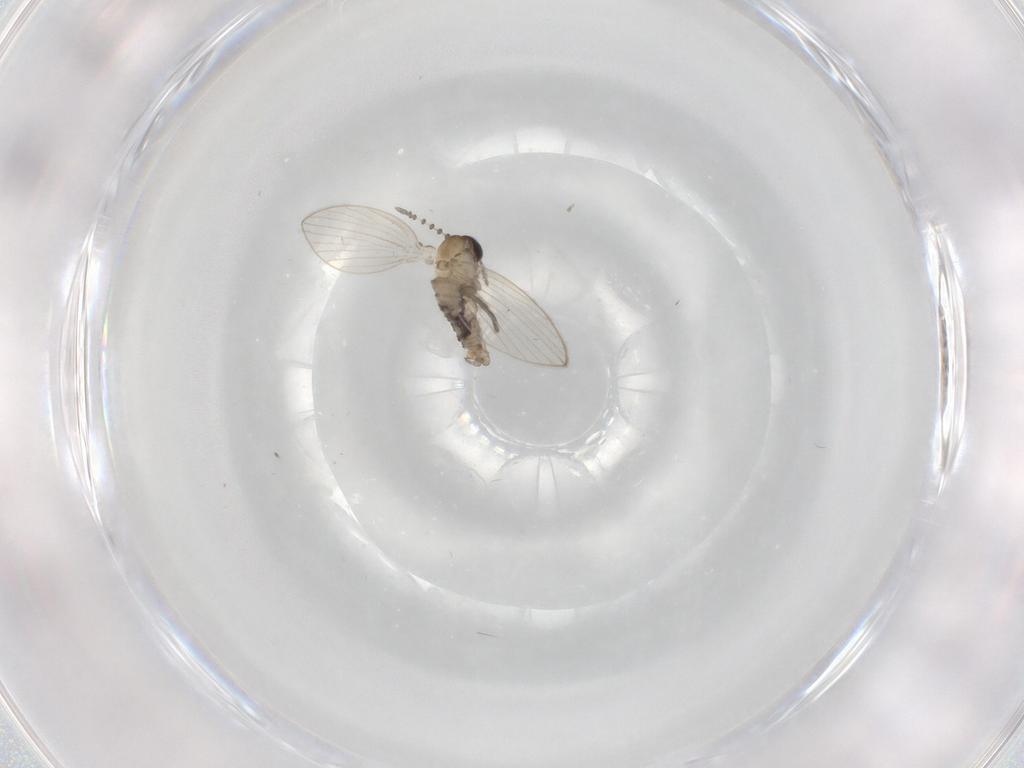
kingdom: Animalia
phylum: Arthropoda
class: Insecta
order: Diptera
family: Psychodidae
